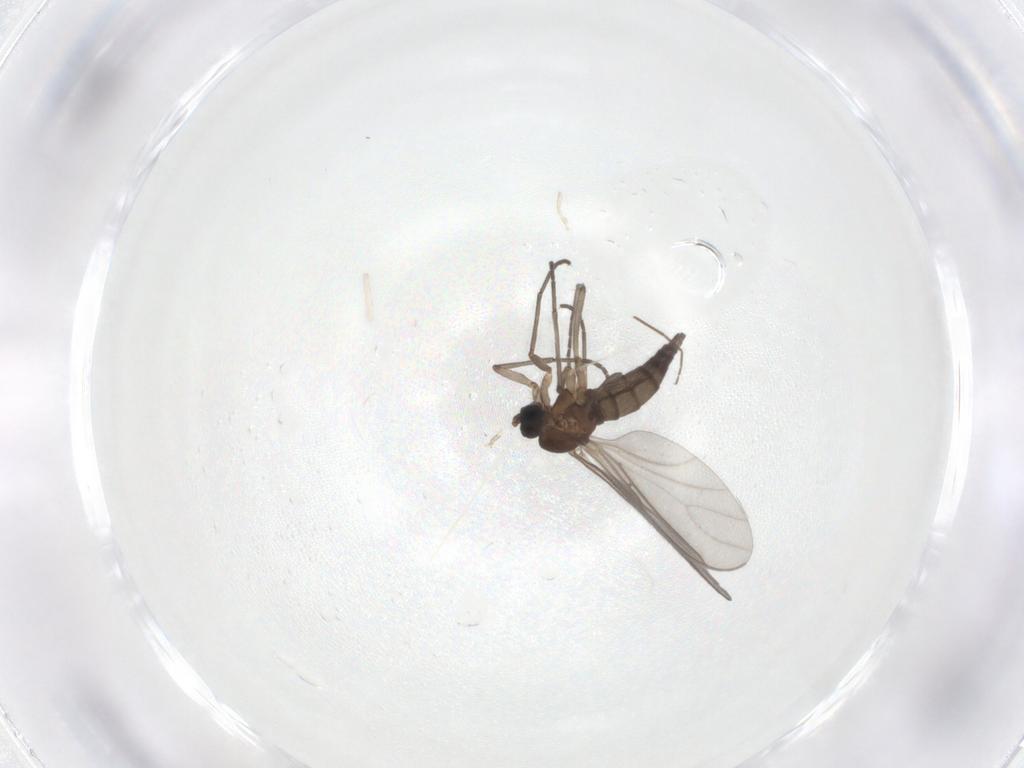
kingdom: Animalia
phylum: Arthropoda
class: Insecta
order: Diptera
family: Chironomidae
